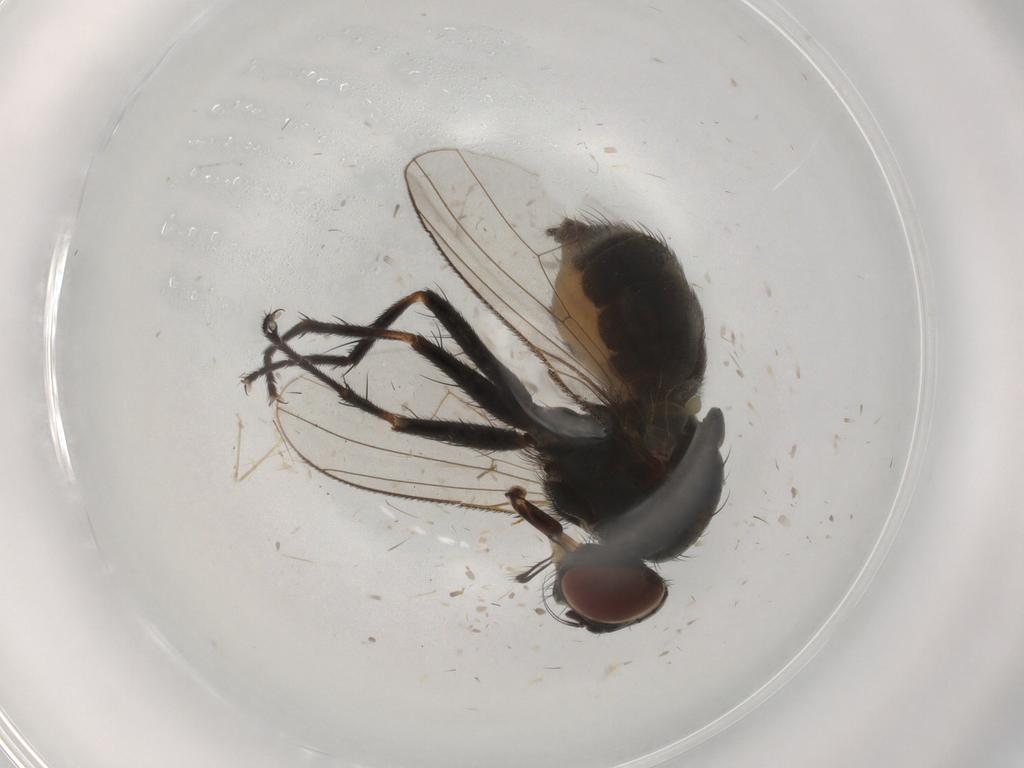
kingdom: Animalia
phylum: Arthropoda
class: Insecta
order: Diptera
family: Muscidae
